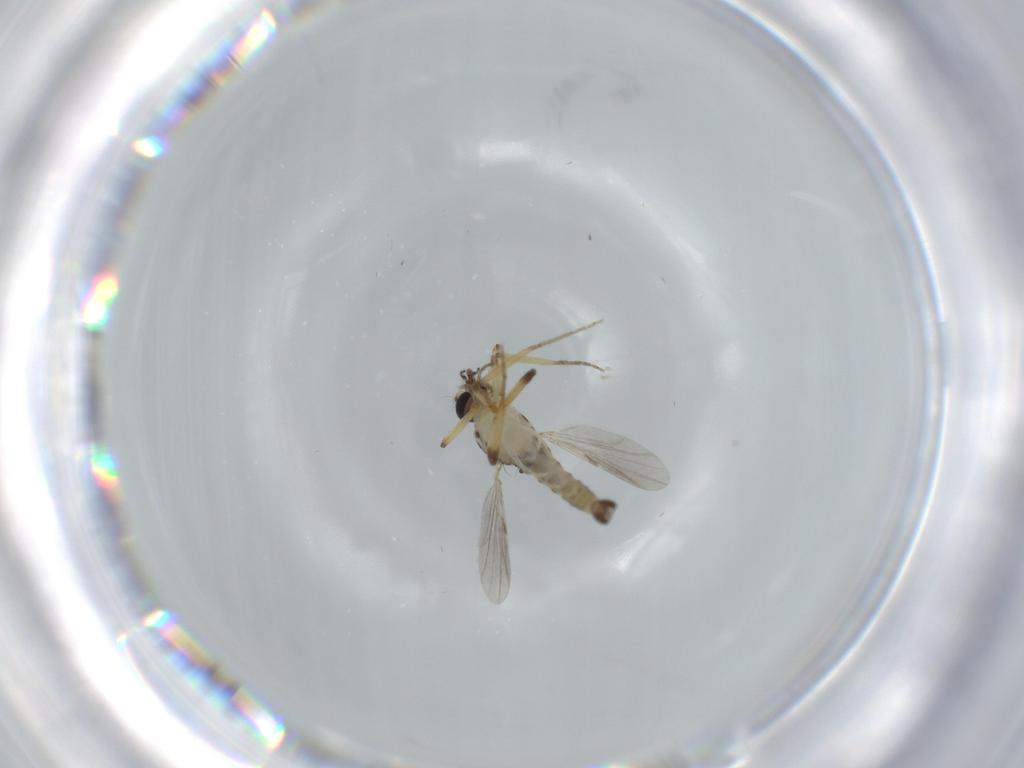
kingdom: Animalia
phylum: Arthropoda
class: Insecta
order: Diptera
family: Ceratopogonidae
